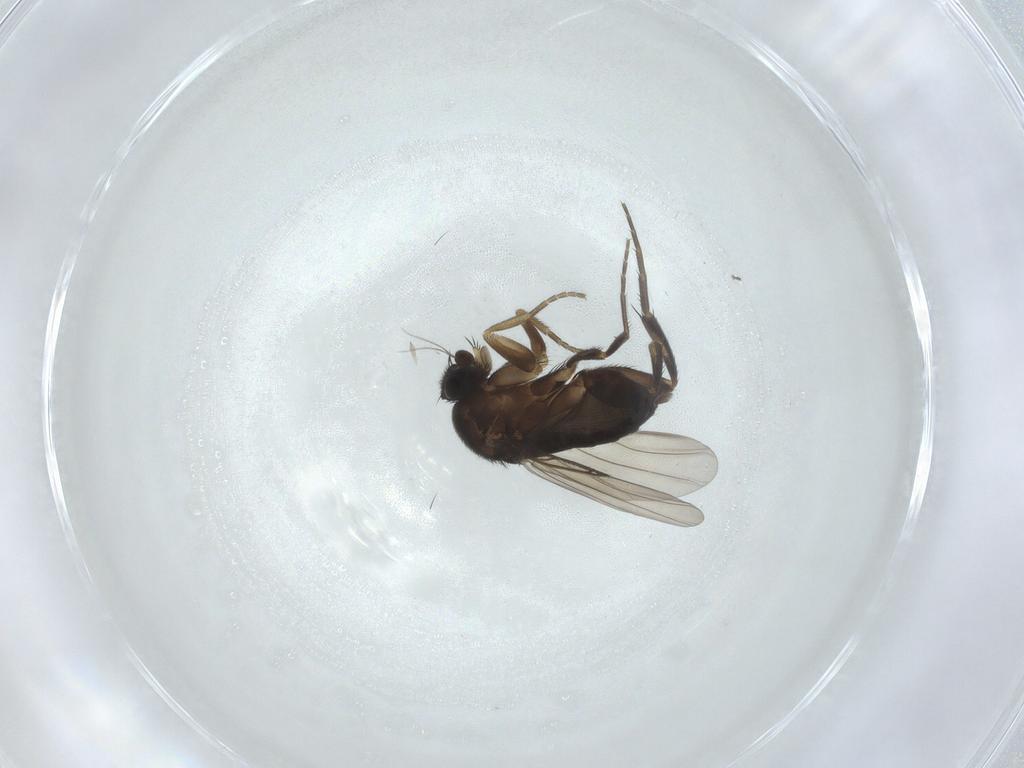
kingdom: Animalia
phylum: Arthropoda
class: Insecta
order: Diptera
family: Phoridae
